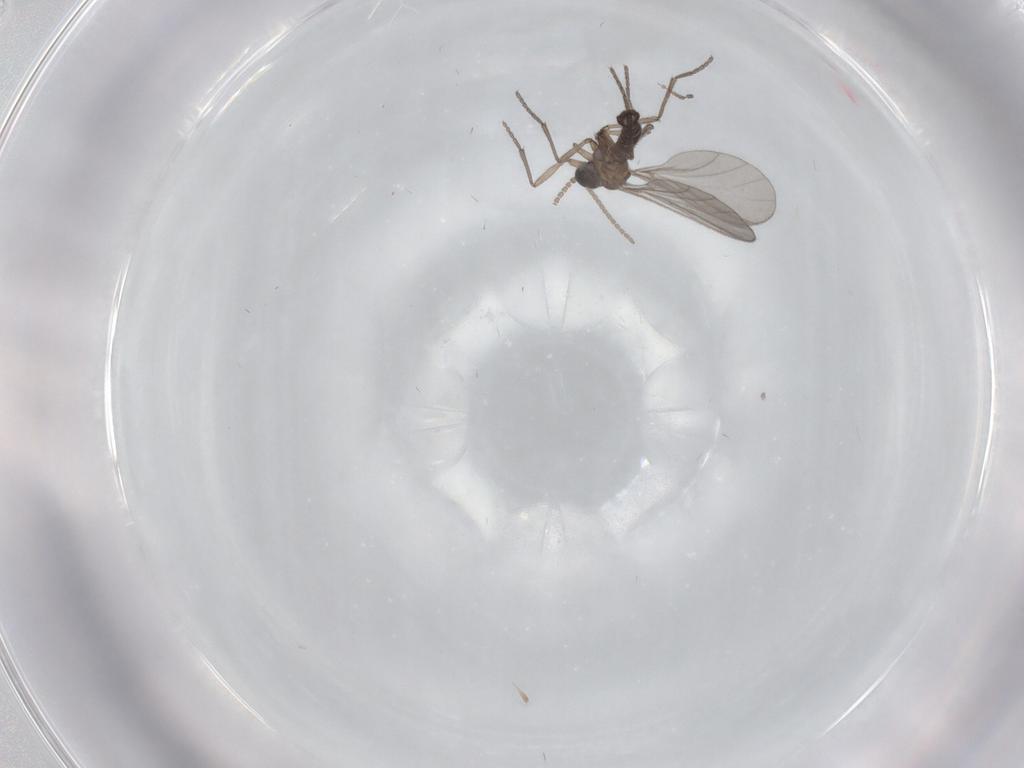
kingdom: Animalia
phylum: Arthropoda
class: Insecta
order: Diptera
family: Sciaridae
